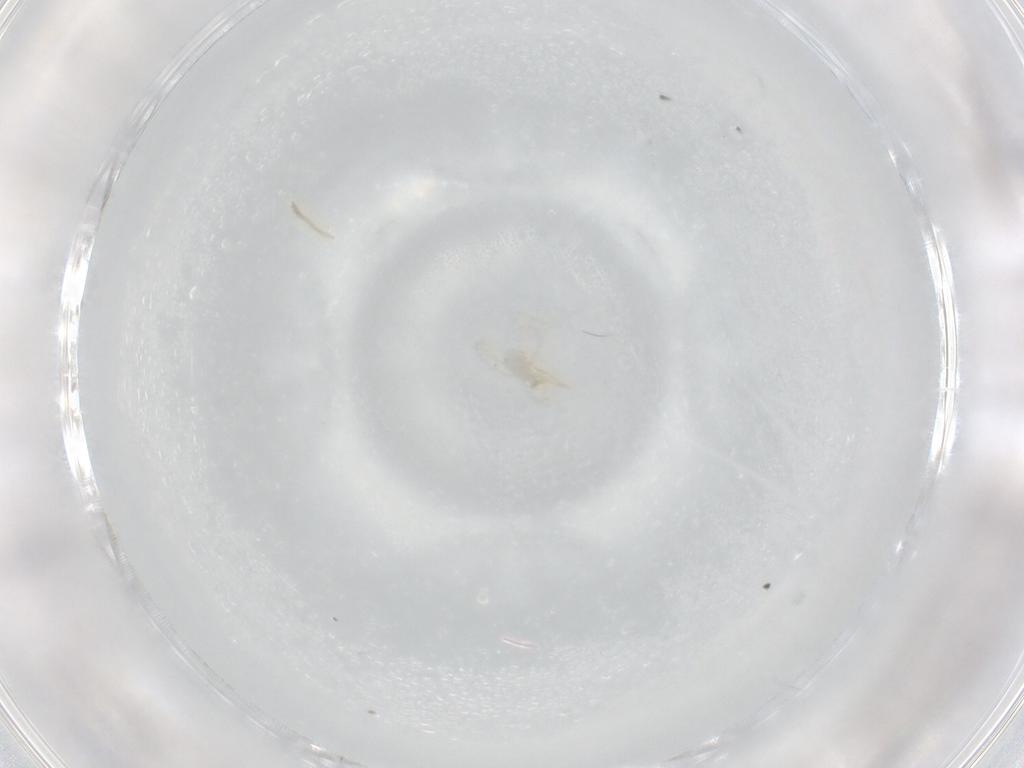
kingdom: Animalia
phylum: Arthropoda
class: Arachnida
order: Trombidiformes
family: Erythraeidae
